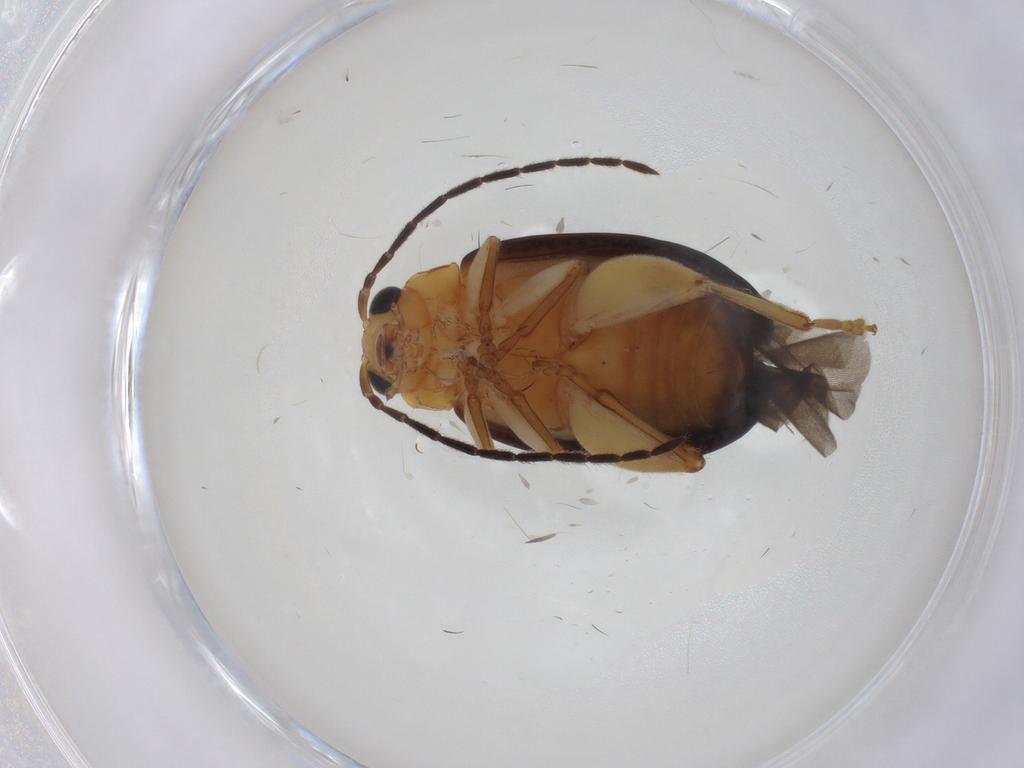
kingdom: Animalia
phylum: Arthropoda
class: Insecta
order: Coleoptera
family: Chrysomelidae
